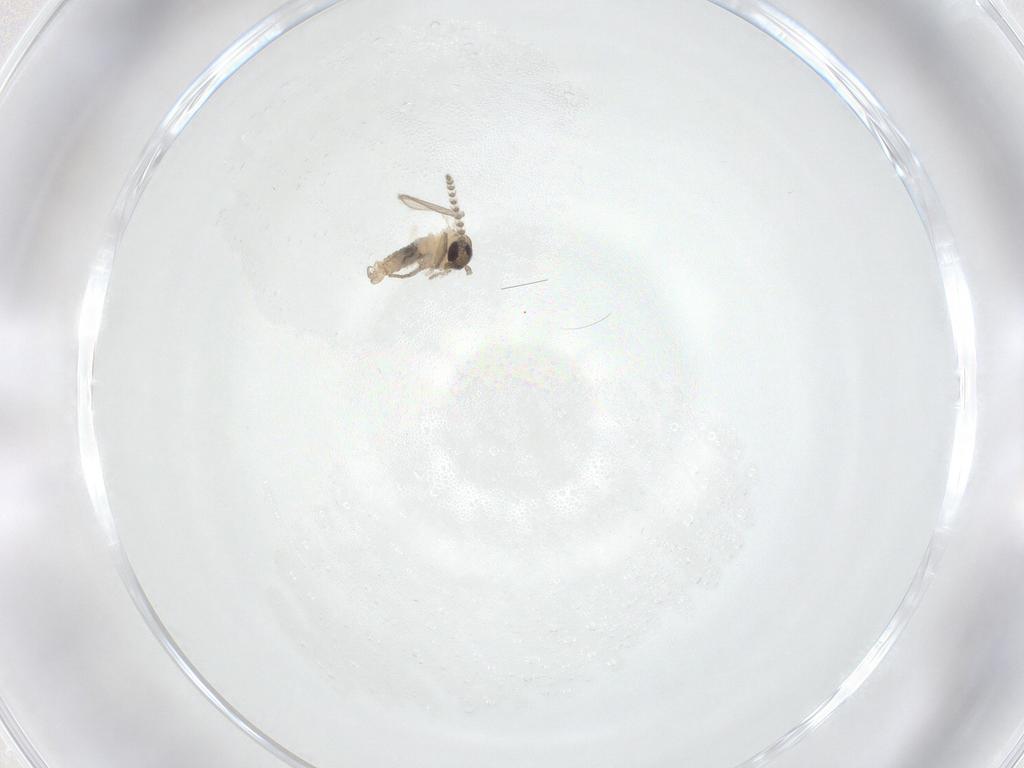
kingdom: Animalia
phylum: Arthropoda
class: Insecta
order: Diptera
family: Psychodidae
